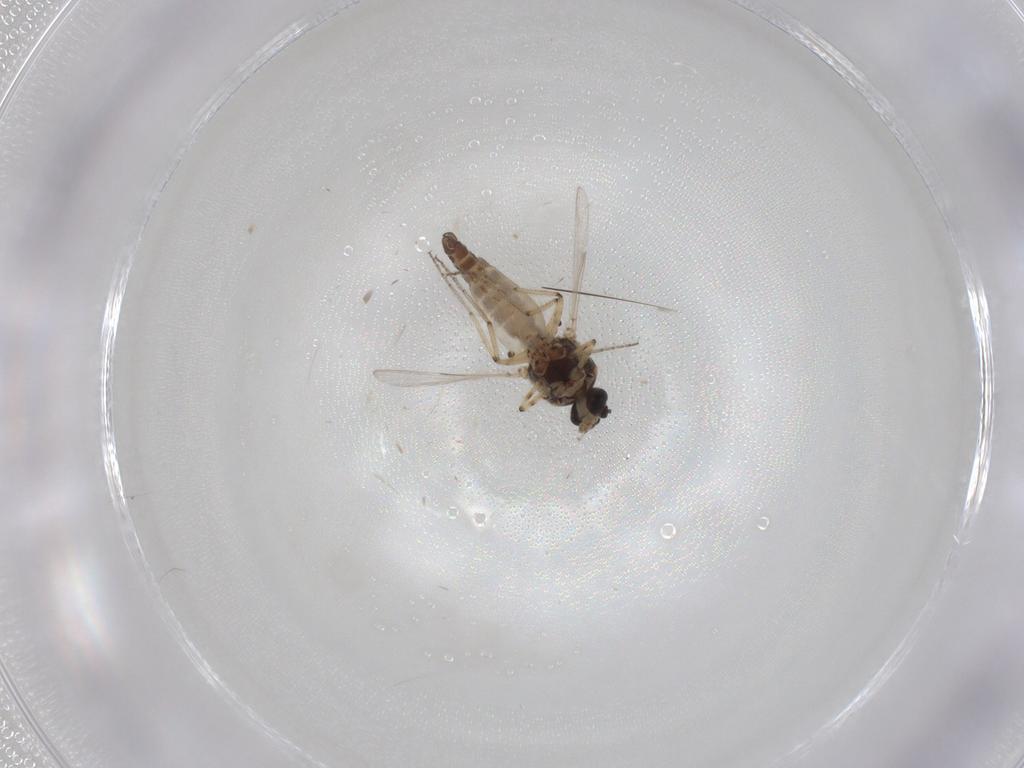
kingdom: Animalia
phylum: Arthropoda
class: Insecta
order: Diptera
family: Ceratopogonidae
